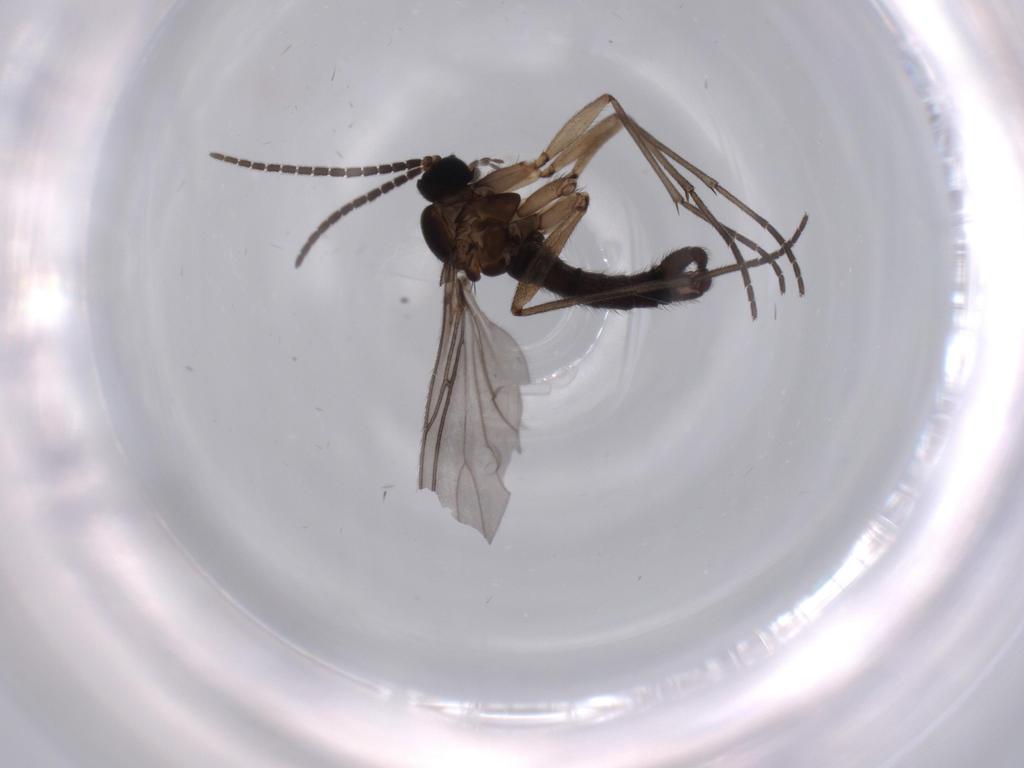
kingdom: Animalia
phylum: Arthropoda
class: Insecta
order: Diptera
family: Sciaridae
